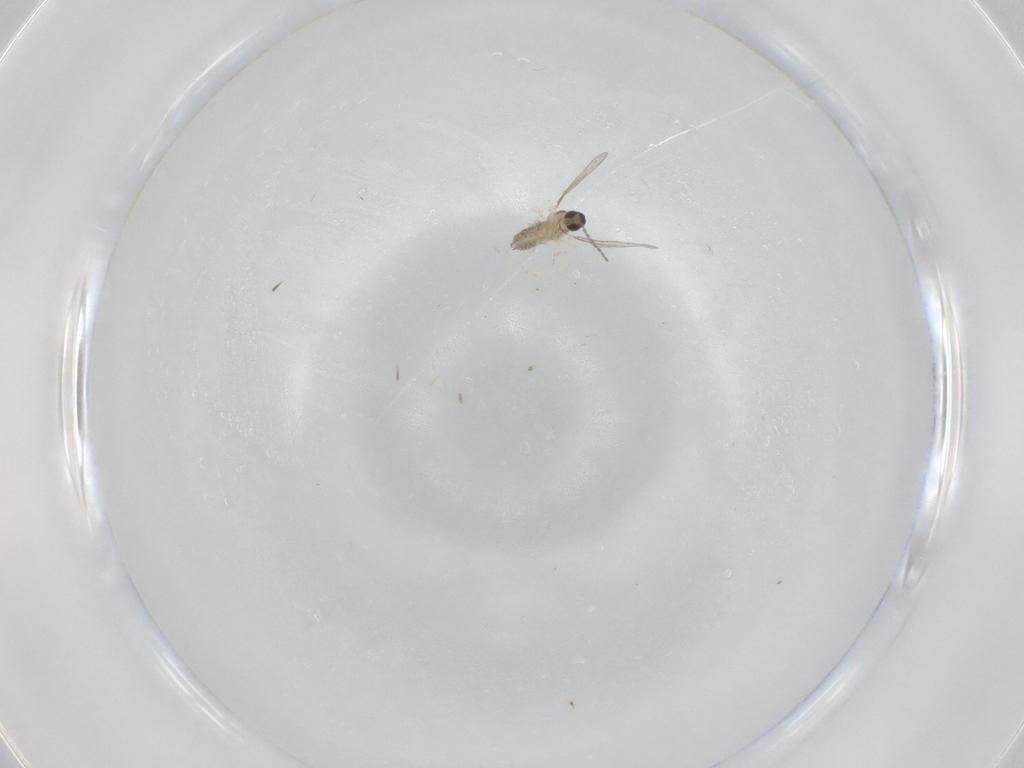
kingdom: Animalia
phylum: Arthropoda
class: Insecta
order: Diptera
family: Cecidomyiidae
